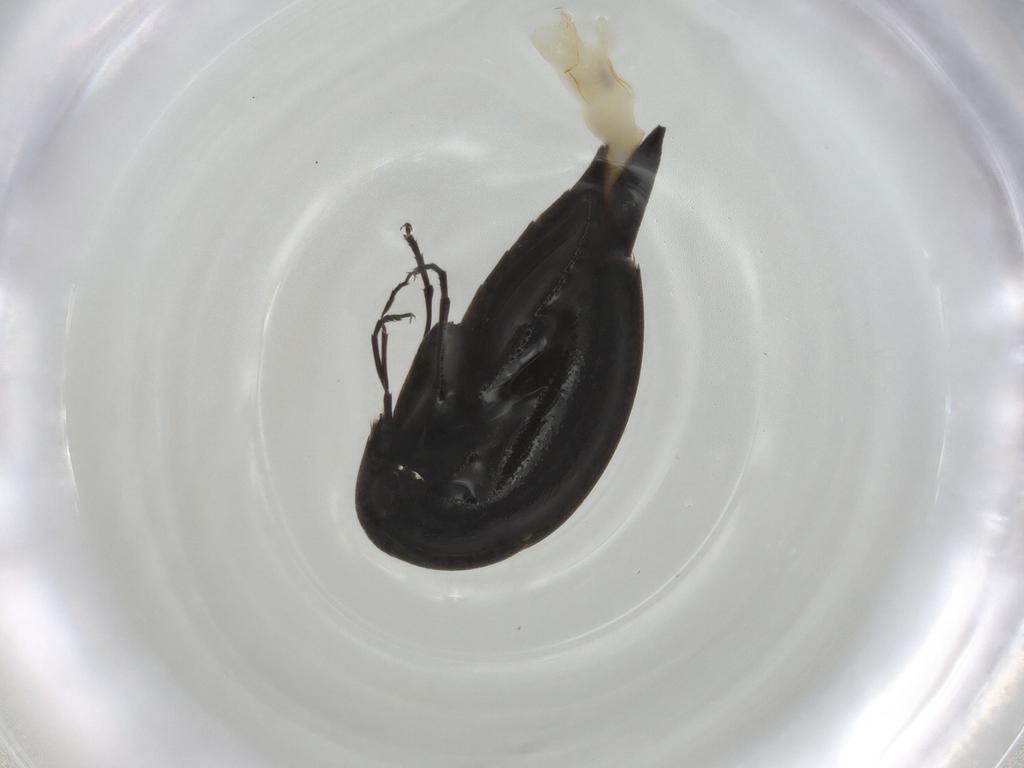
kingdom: Animalia
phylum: Arthropoda
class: Insecta
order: Coleoptera
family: Mordellidae
